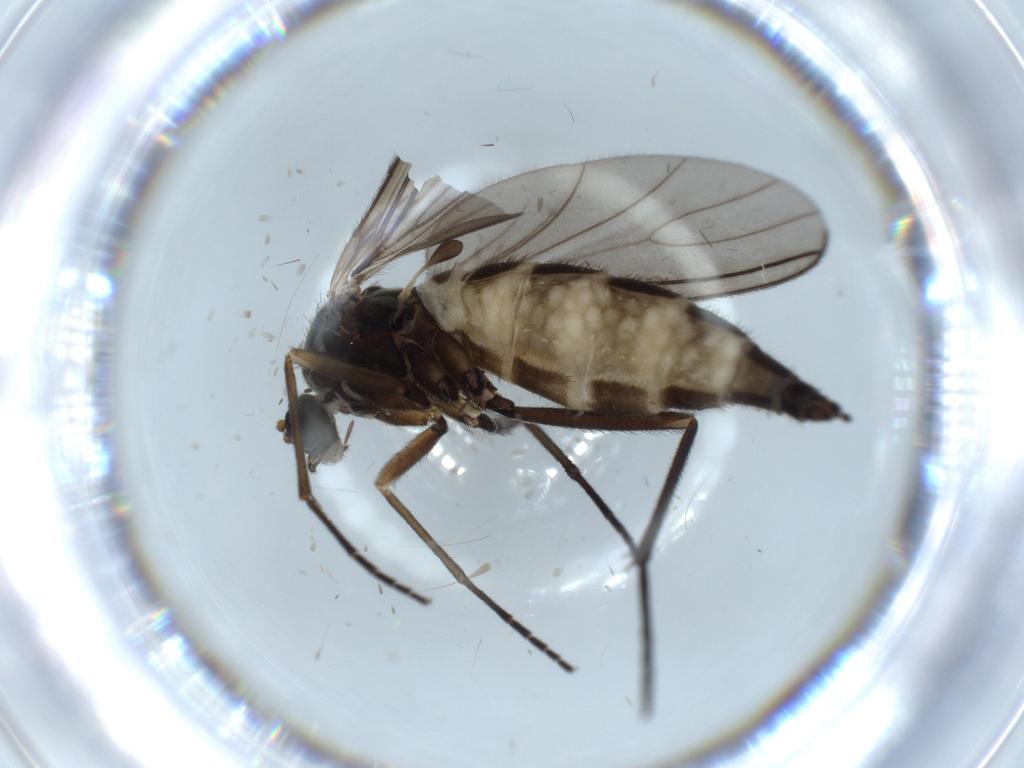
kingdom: Animalia
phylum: Arthropoda
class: Insecta
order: Diptera
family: Sciaridae
